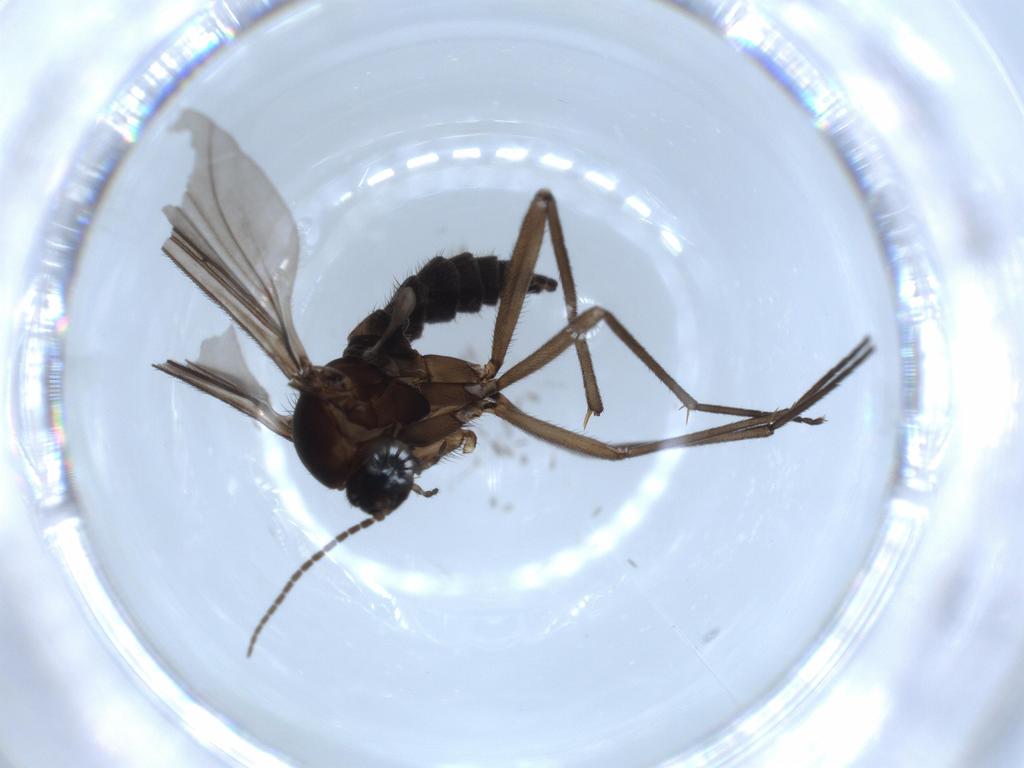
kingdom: Animalia
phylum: Arthropoda
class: Insecta
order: Diptera
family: Sciaridae
